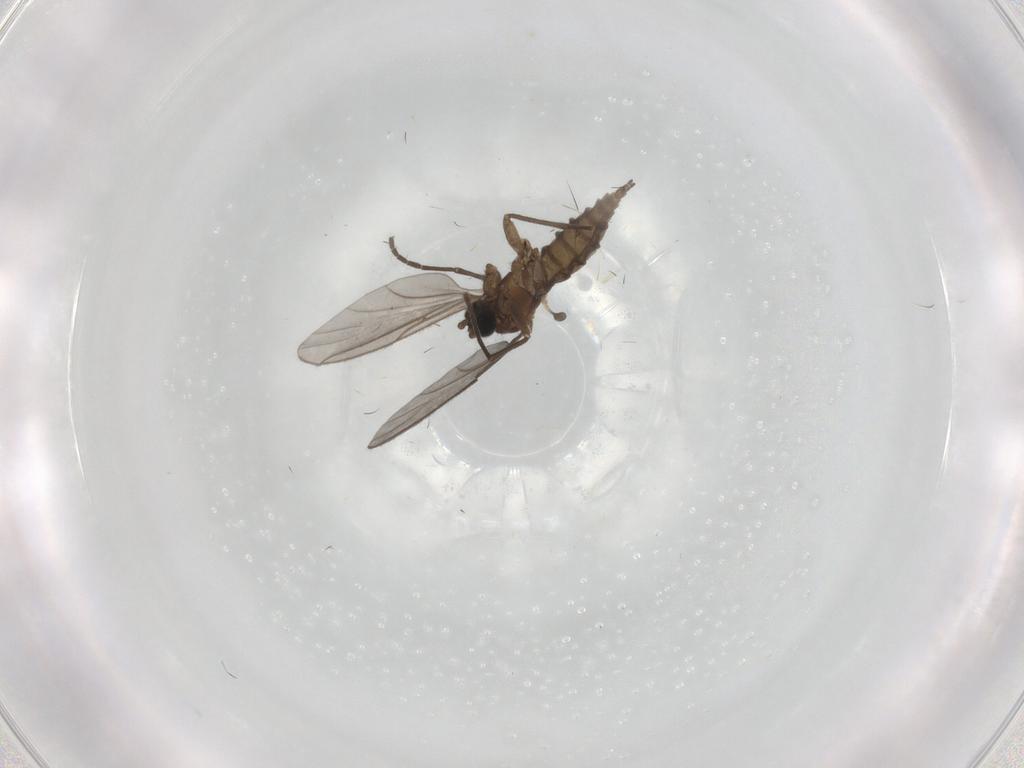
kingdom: Animalia
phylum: Arthropoda
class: Insecta
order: Diptera
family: Sciaridae
